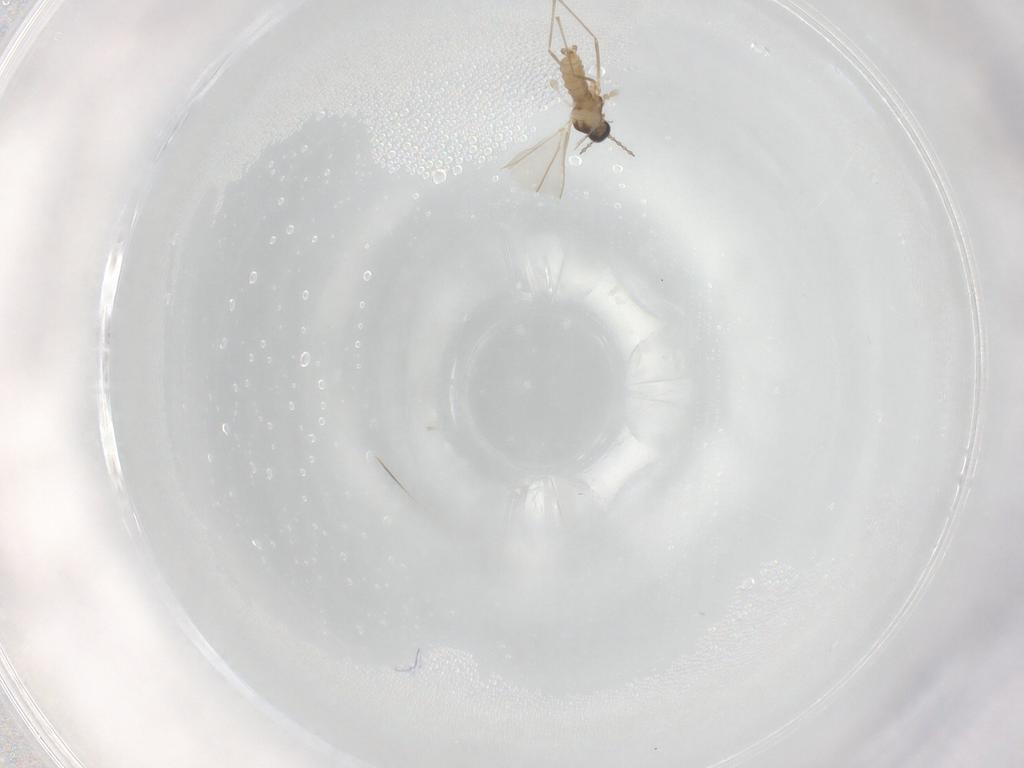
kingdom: Animalia
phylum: Arthropoda
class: Insecta
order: Diptera
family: Cecidomyiidae
